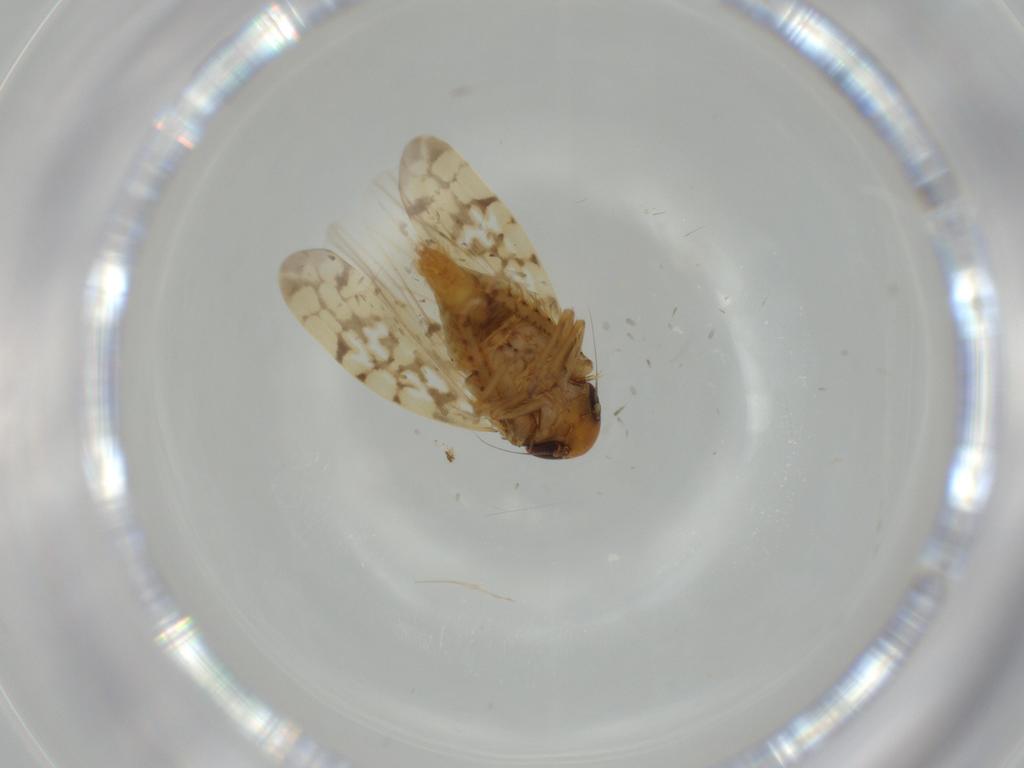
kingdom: Animalia
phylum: Arthropoda
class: Insecta
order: Hemiptera
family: Cicadellidae
